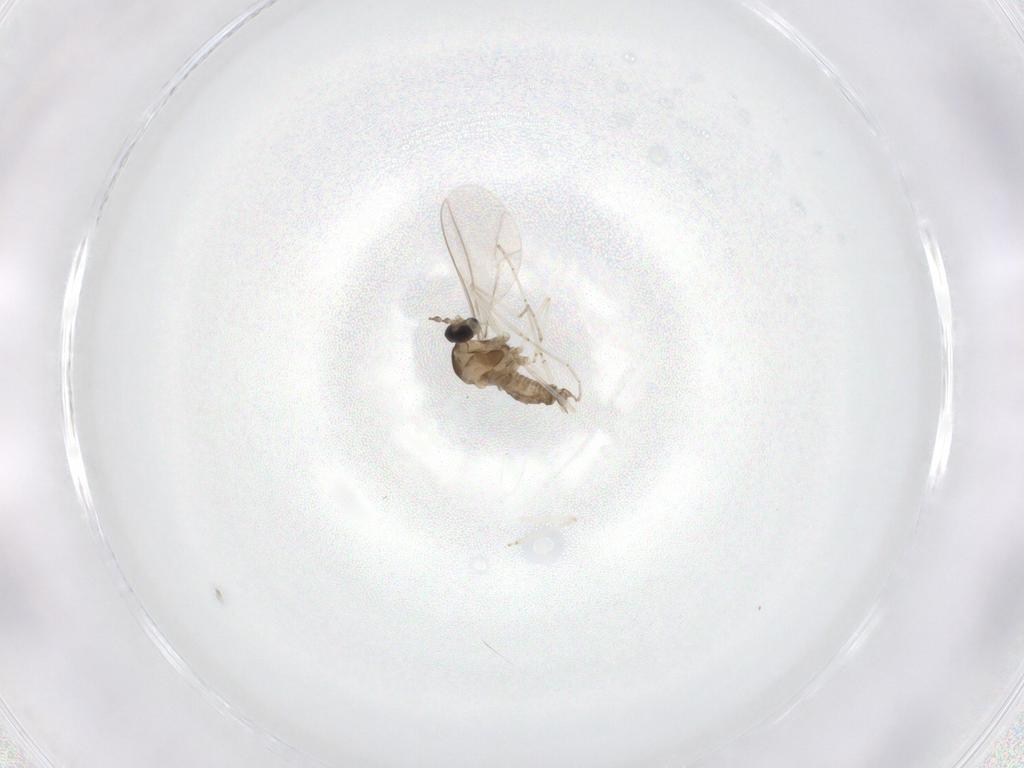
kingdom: Animalia
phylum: Arthropoda
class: Insecta
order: Diptera
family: Cecidomyiidae
